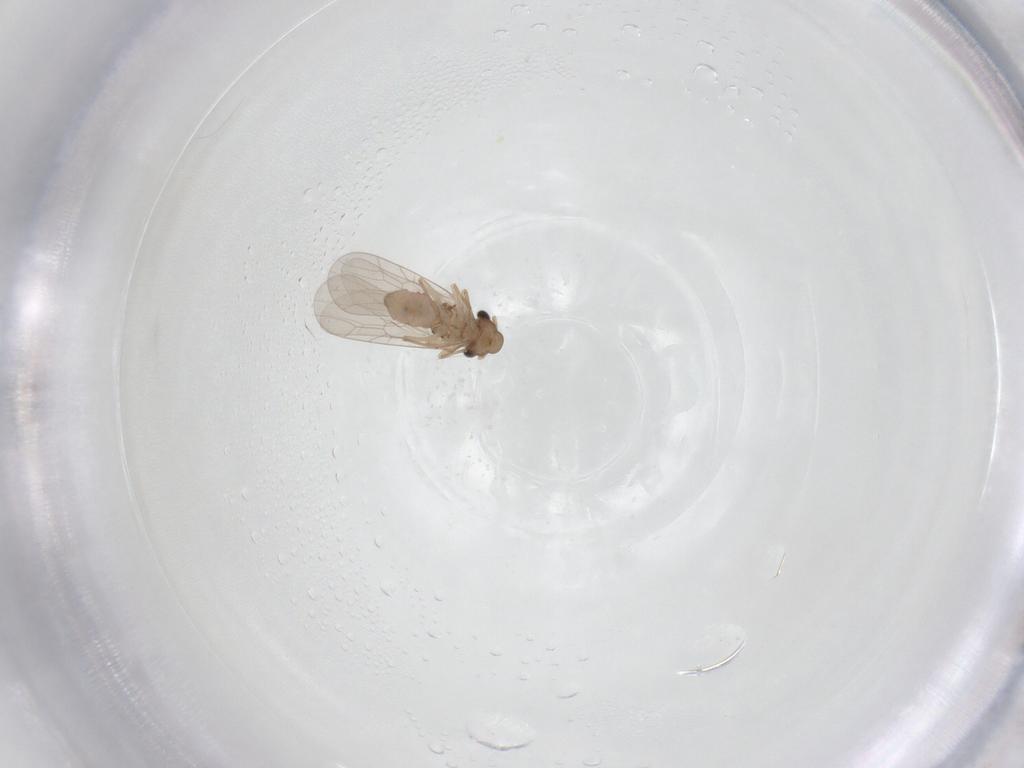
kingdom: Animalia
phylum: Arthropoda
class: Insecta
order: Psocodea
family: Lepidopsocidae
